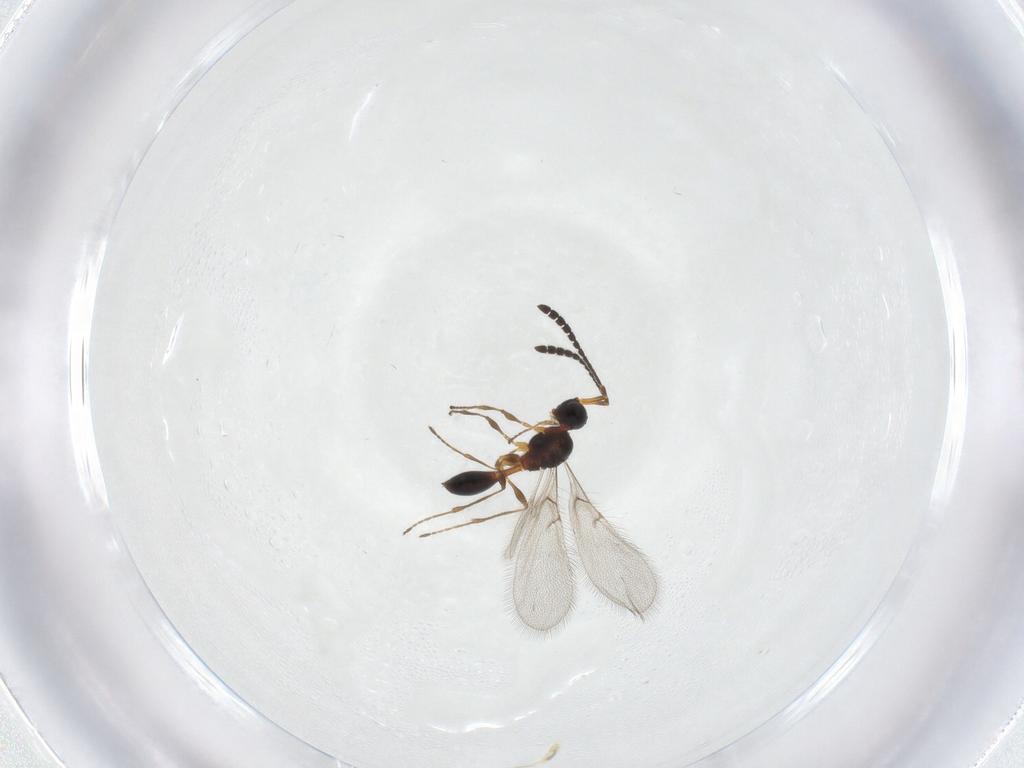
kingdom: Animalia
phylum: Arthropoda
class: Insecta
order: Hymenoptera
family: Diapriidae
